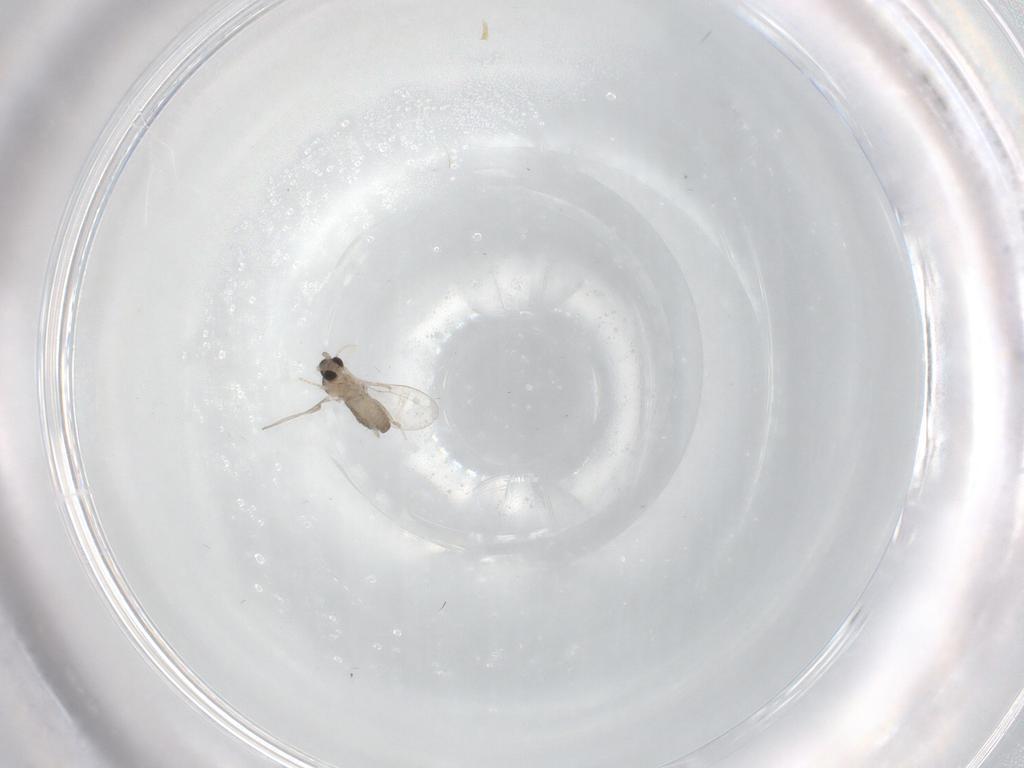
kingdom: Animalia
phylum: Arthropoda
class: Insecta
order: Diptera
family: Cecidomyiidae
